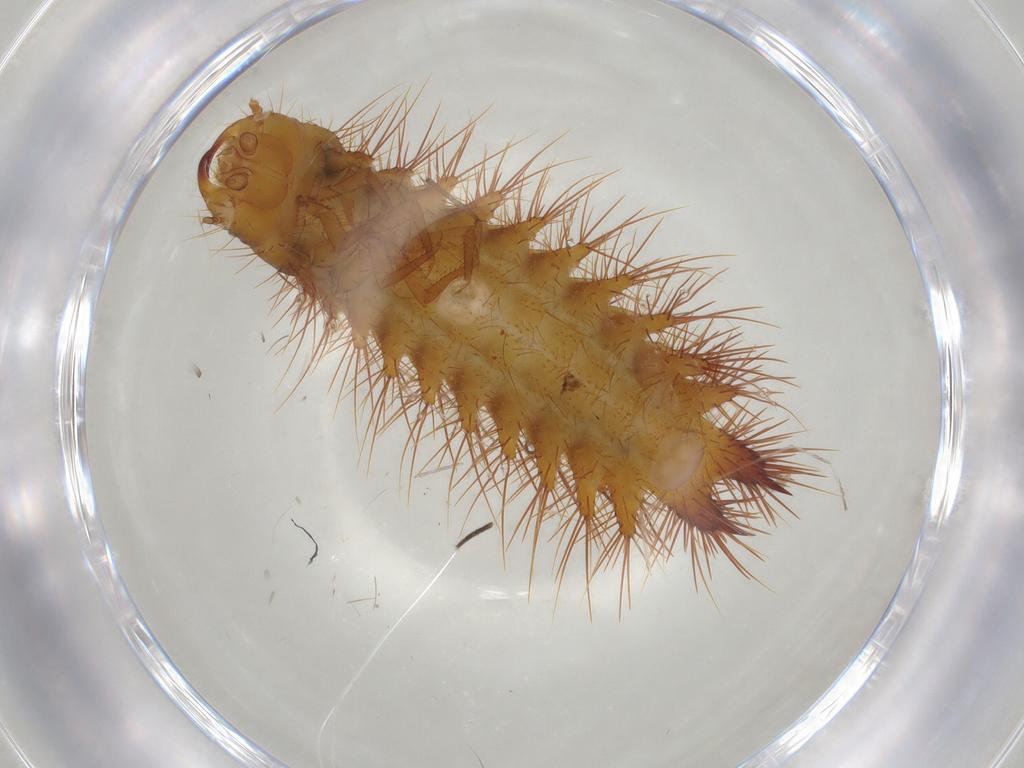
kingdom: Animalia
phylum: Arthropoda
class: Insecta
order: Coleoptera
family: Elateridae
